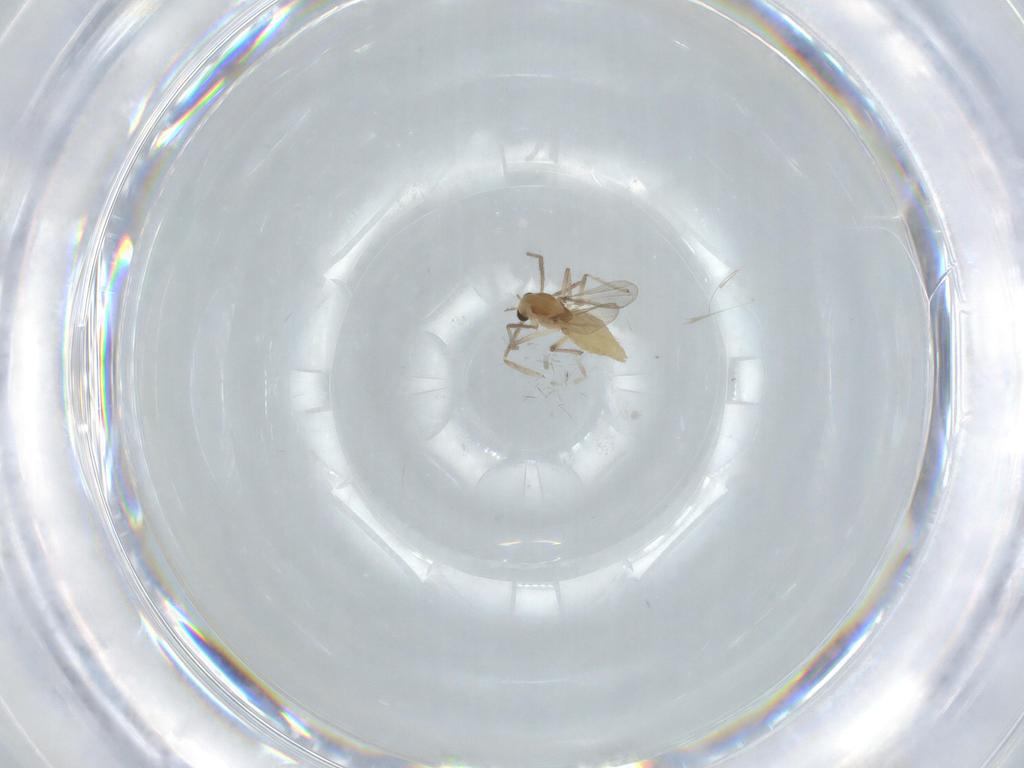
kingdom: Animalia
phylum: Arthropoda
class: Insecta
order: Diptera
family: Chironomidae
